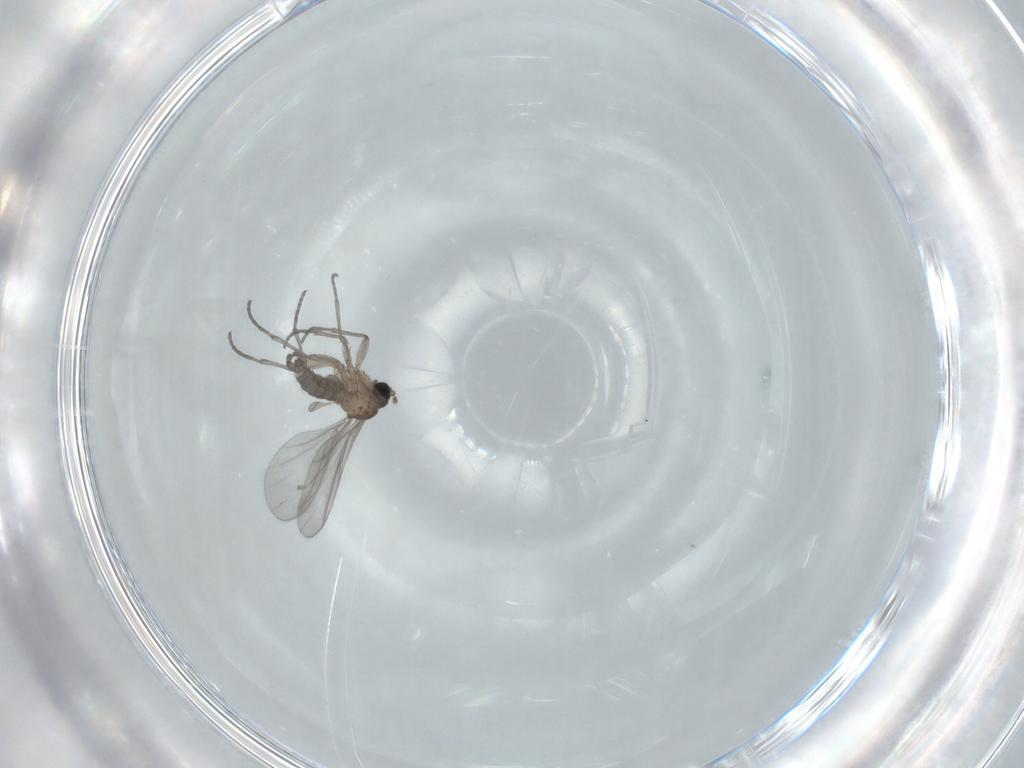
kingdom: Animalia
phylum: Arthropoda
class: Insecta
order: Diptera
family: Sciaridae
